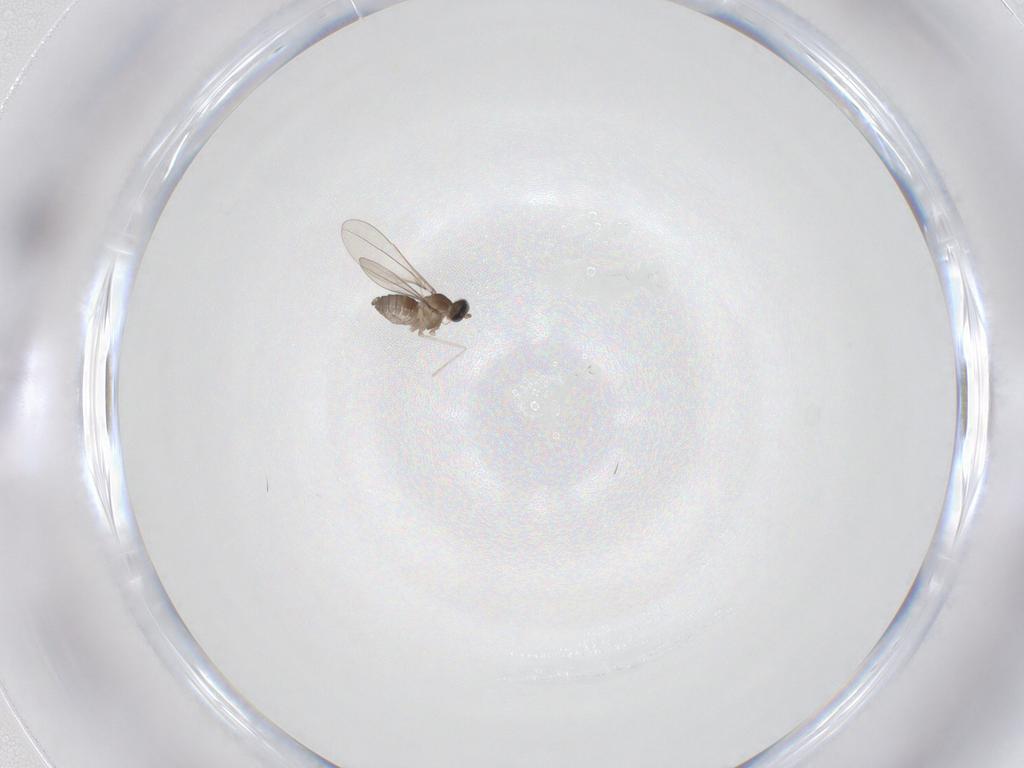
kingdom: Animalia
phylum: Arthropoda
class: Insecta
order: Diptera
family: Cecidomyiidae
